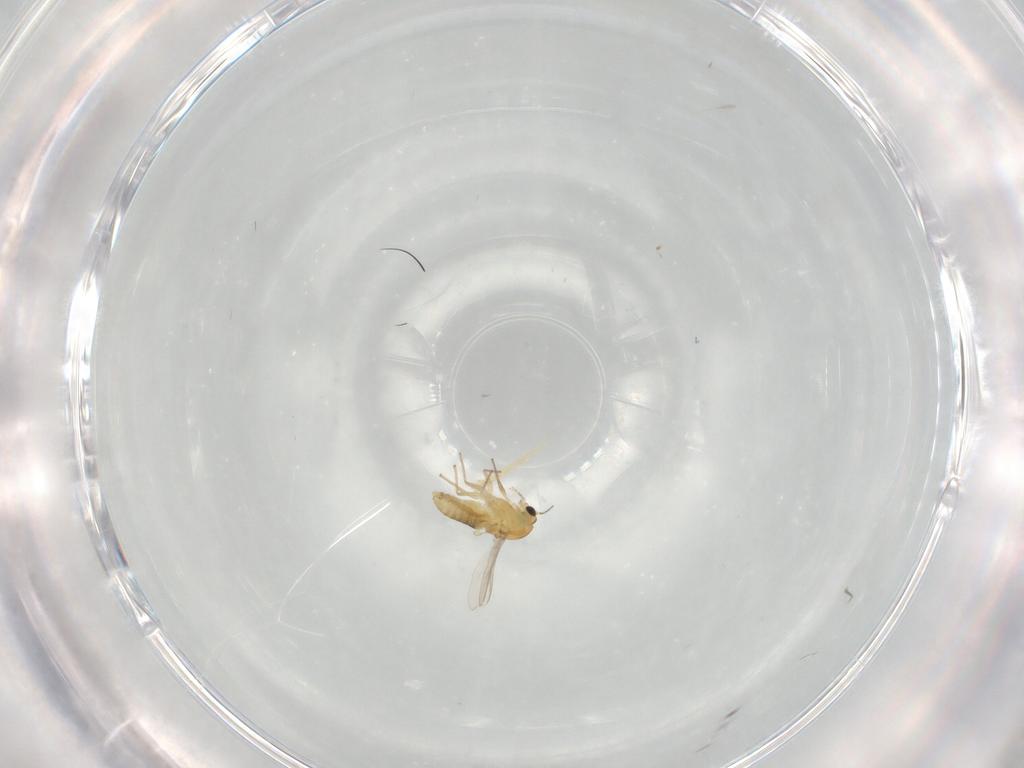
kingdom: Animalia
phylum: Arthropoda
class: Insecta
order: Diptera
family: Chironomidae
